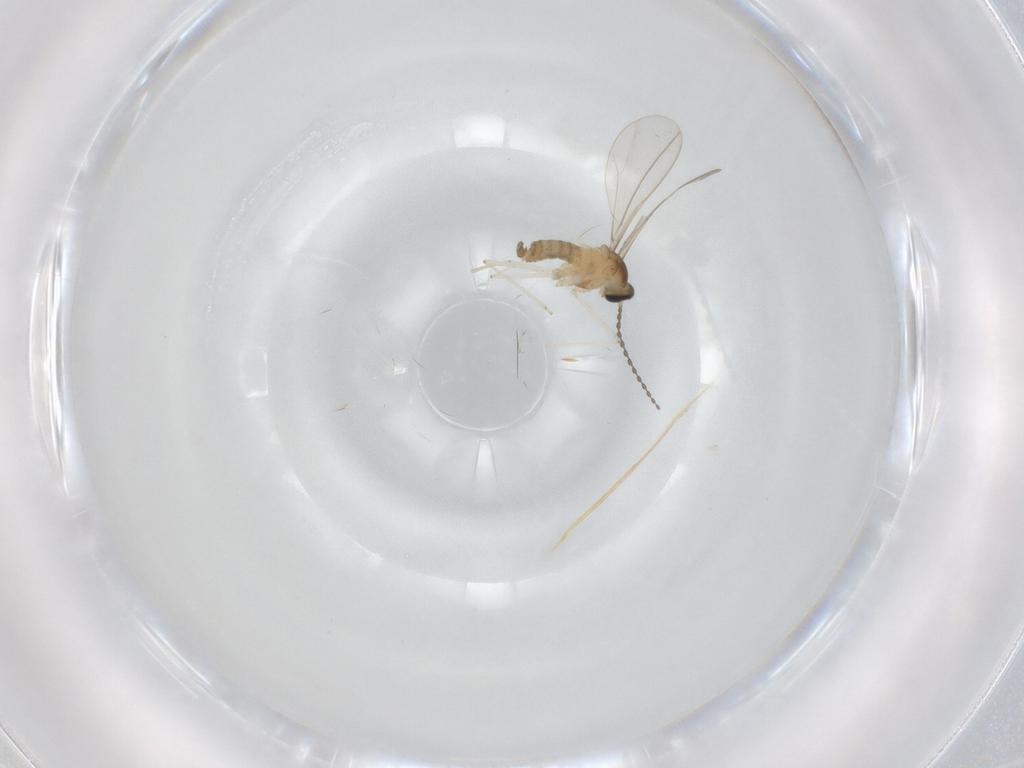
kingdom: Animalia
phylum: Arthropoda
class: Insecta
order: Diptera
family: Cecidomyiidae
